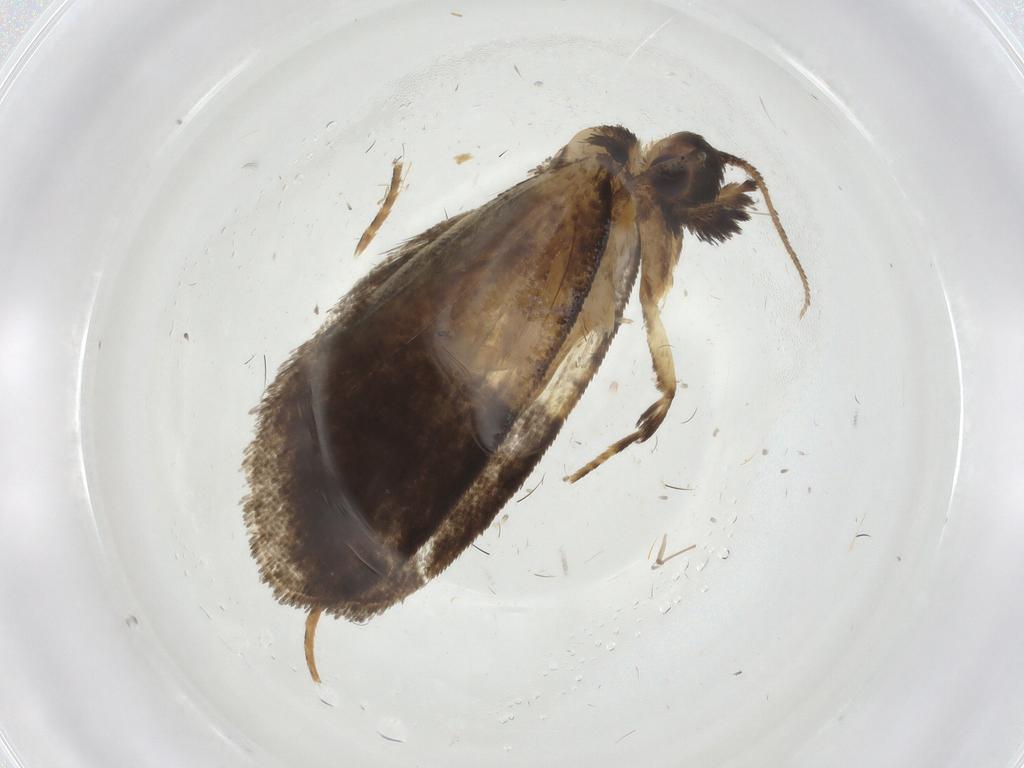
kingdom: Animalia
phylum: Arthropoda
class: Insecta
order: Lepidoptera
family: Psychidae
